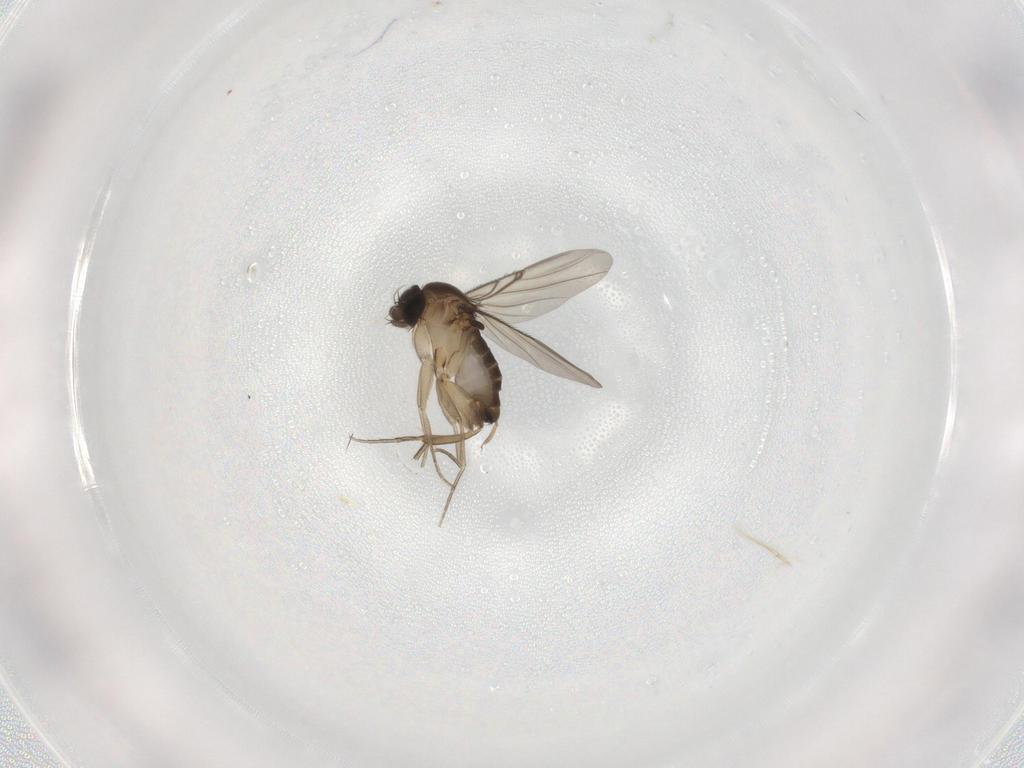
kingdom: Animalia
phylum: Arthropoda
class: Insecta
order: Diptera
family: Phoridae
